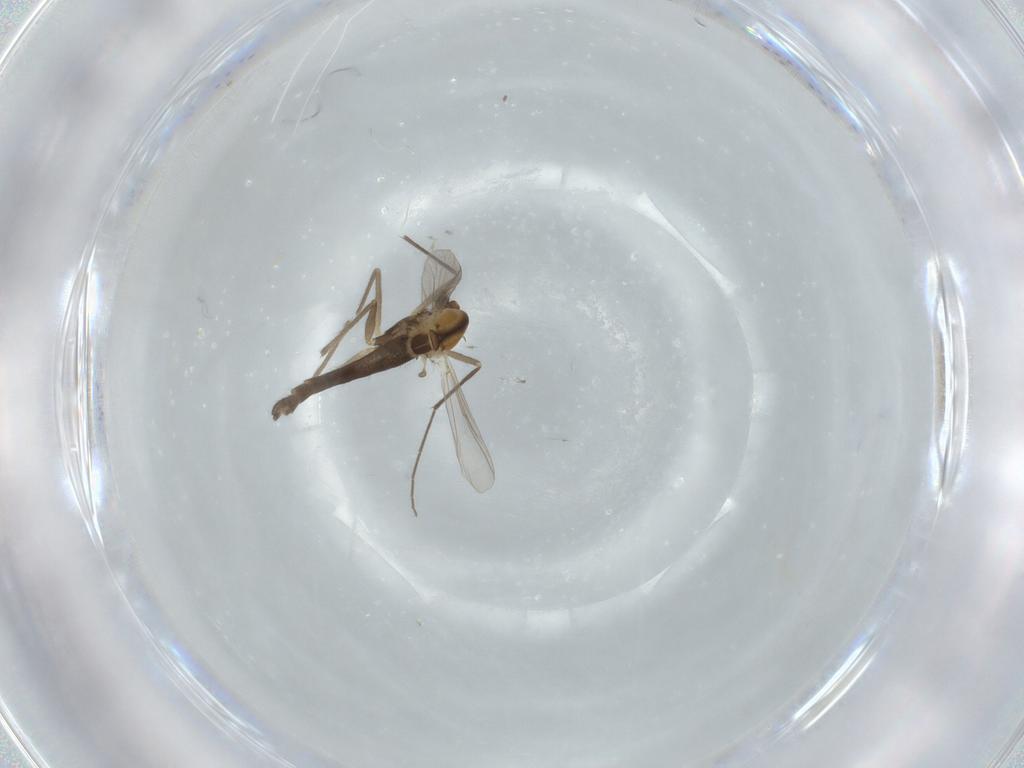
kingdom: Animalia
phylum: Arthropoda
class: Insecta
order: Diptera
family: Chironomidae
